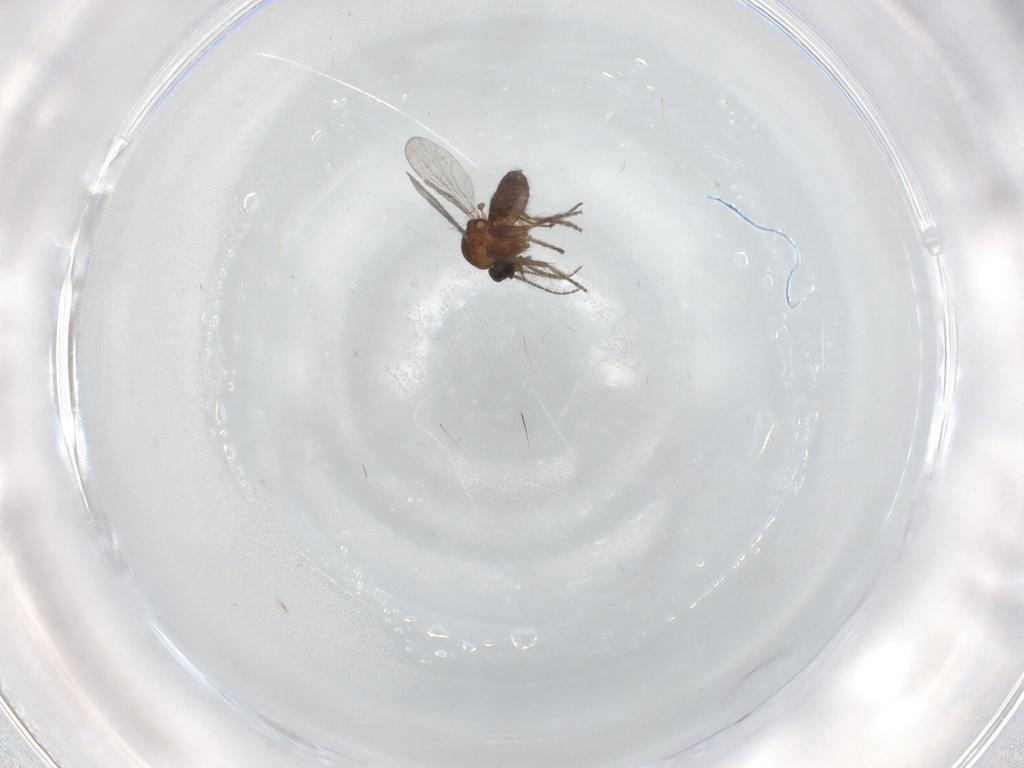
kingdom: Animalia
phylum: Arthropoda
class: Insecta
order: Diptera
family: Sciaridae
